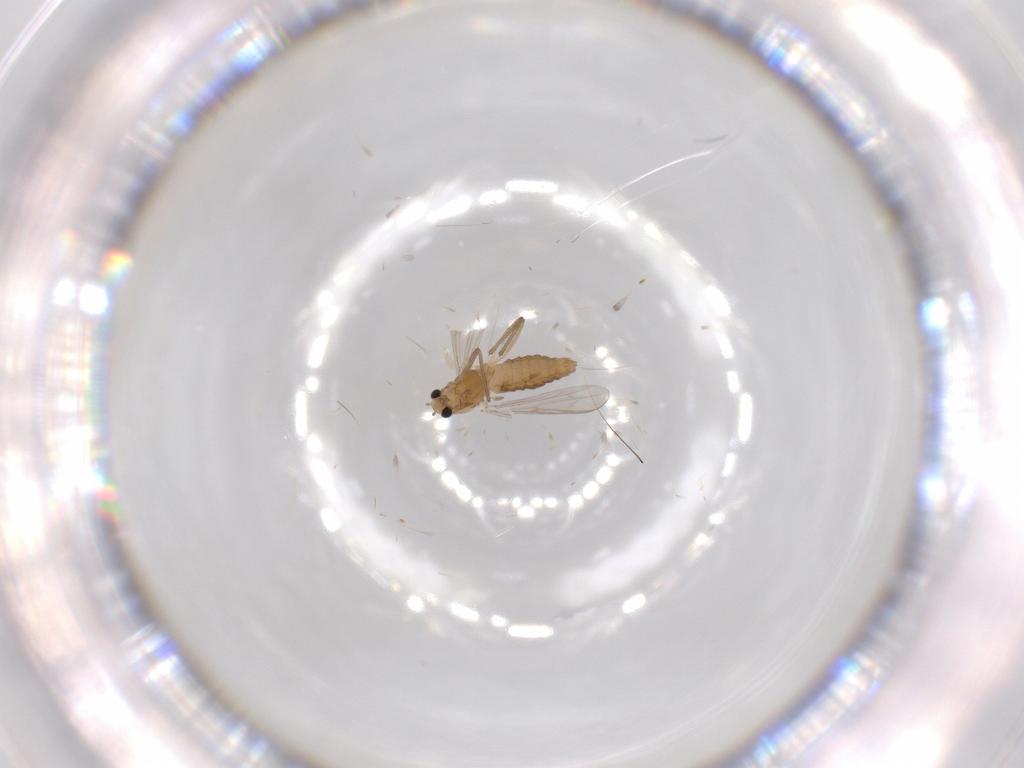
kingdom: Animalia
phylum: Arthropoda
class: Insecta
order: Diptera
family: Chironomidae
